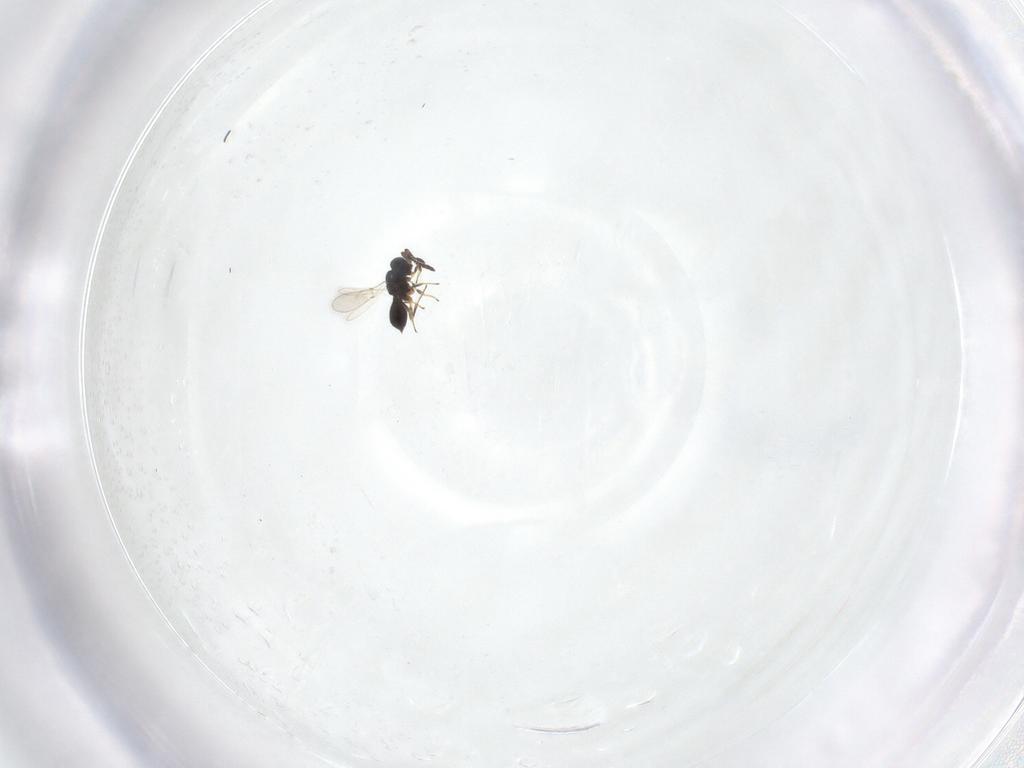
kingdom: Animalia
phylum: Arthropoda
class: Insecta
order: Hymenoptera
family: Scelionidae
